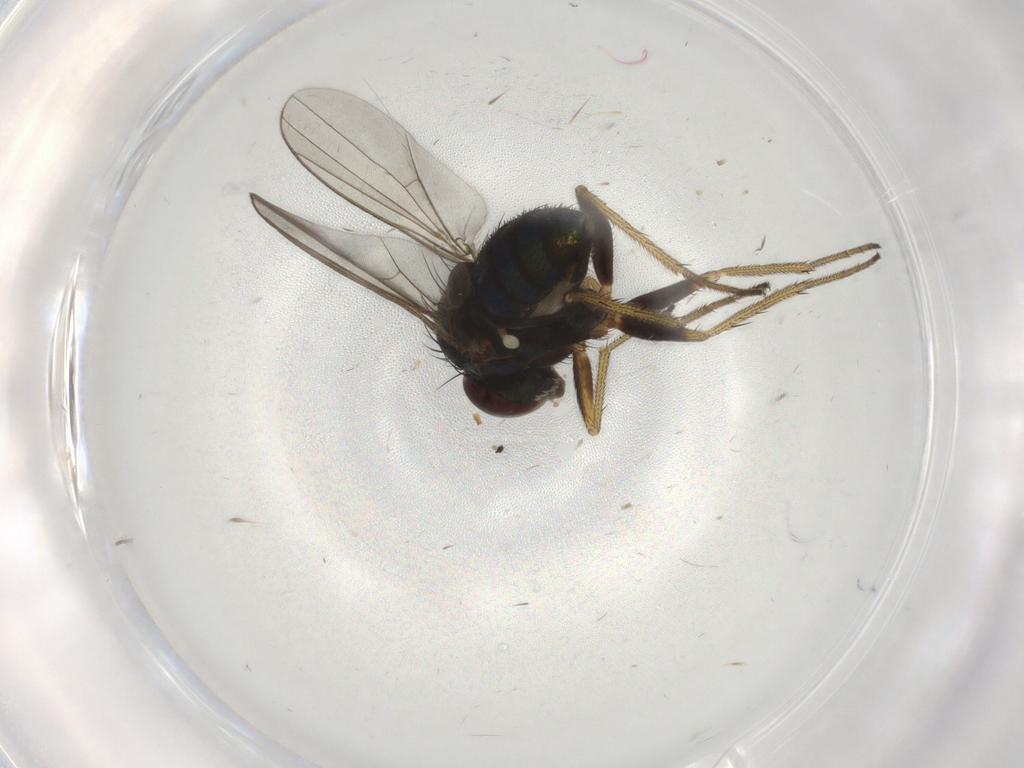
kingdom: Animalia
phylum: Arthropoda
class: Insecta
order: Diptera
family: Cecidomyiidae
